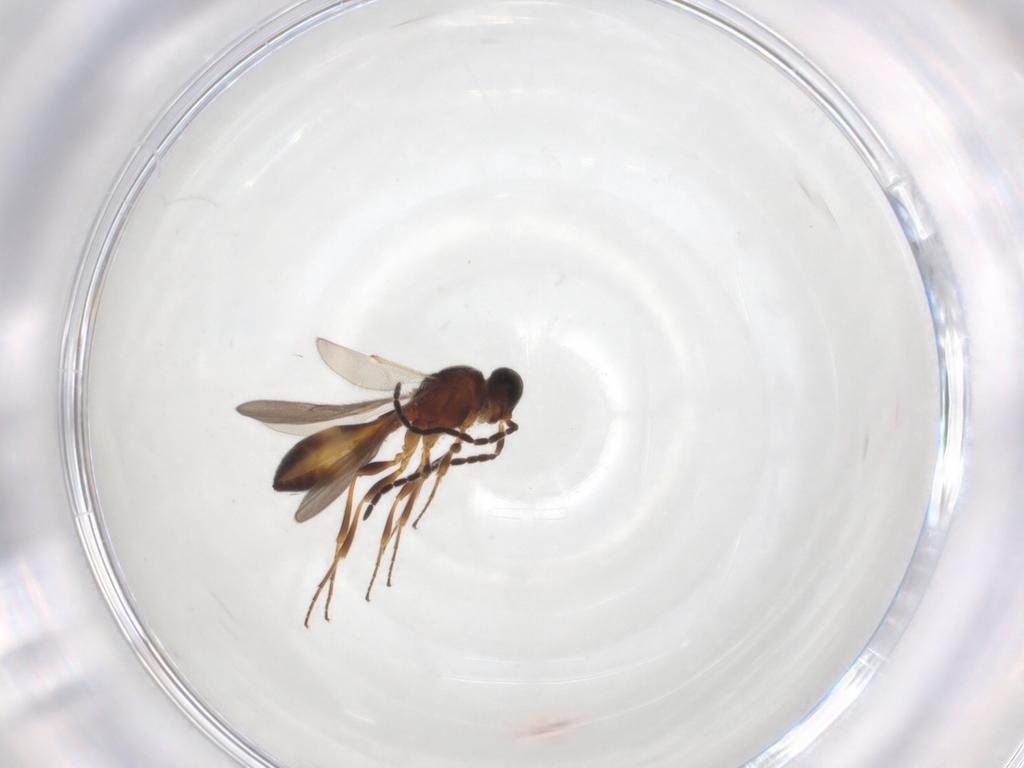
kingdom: Animalia
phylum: Arthropoda
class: Insecta
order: Hymenoptera
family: Scelionidae
